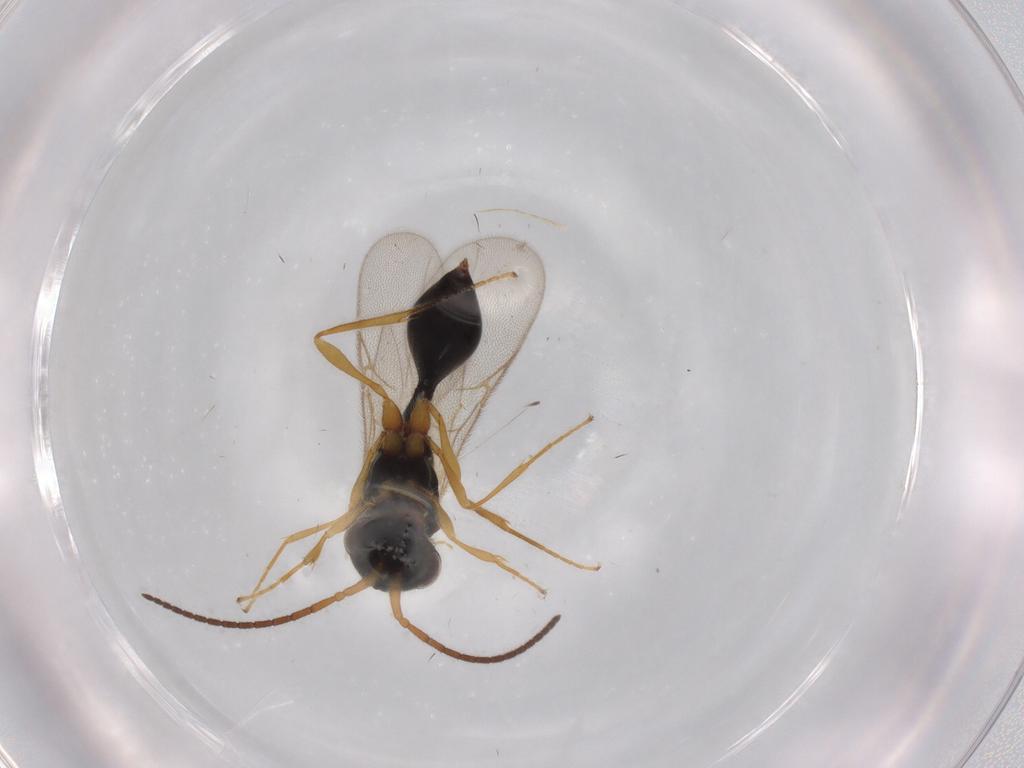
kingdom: Animalia
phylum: Arthropoda
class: Insecta
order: Hymenoptera
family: Diapriidae
